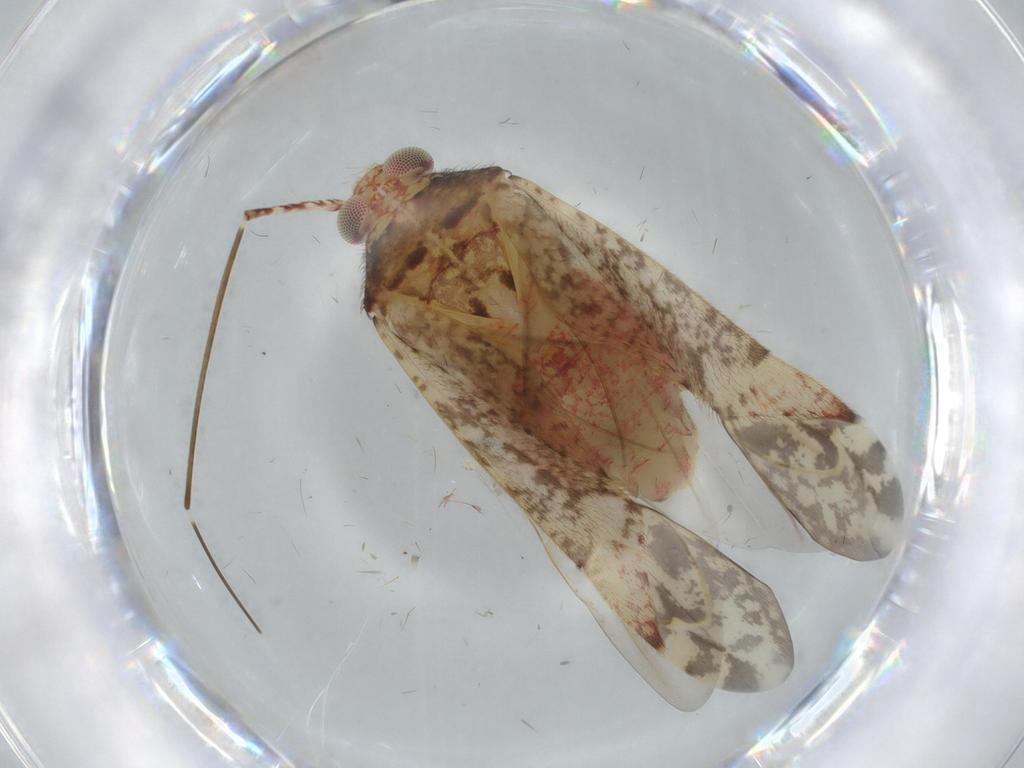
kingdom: Animalia
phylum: Arthropoda
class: Insecta
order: Hemiptera
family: Miridae
